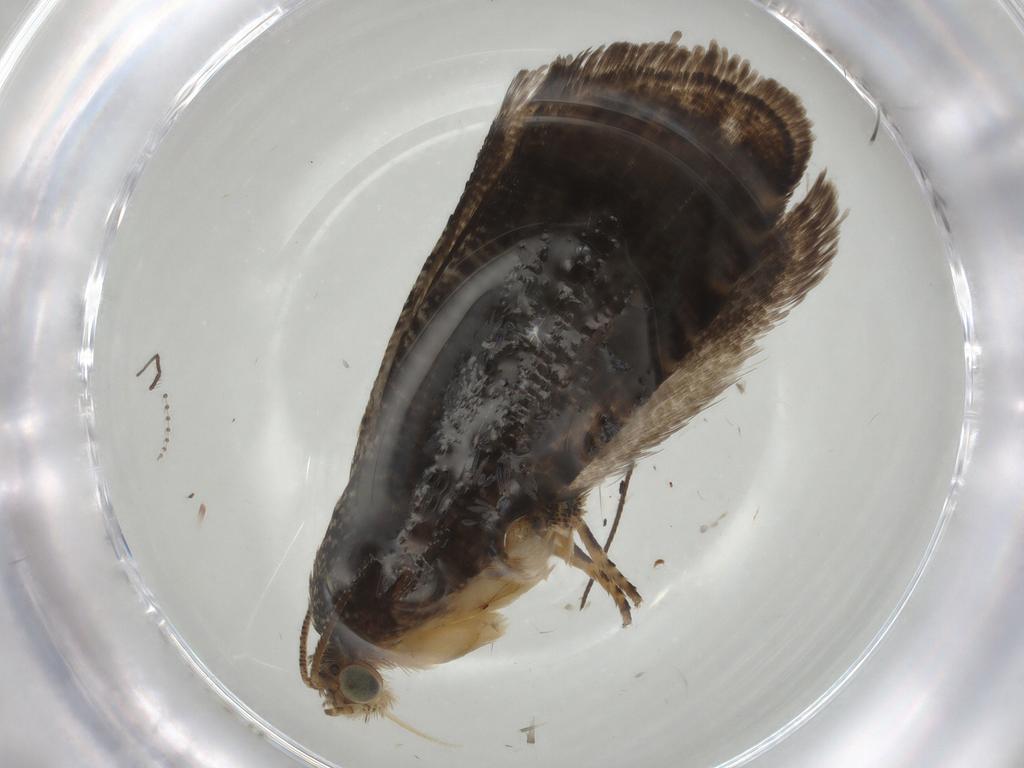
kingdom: Animalia
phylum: Arthropoda
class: Insecta
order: Lepidoptera
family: Tortricidae
